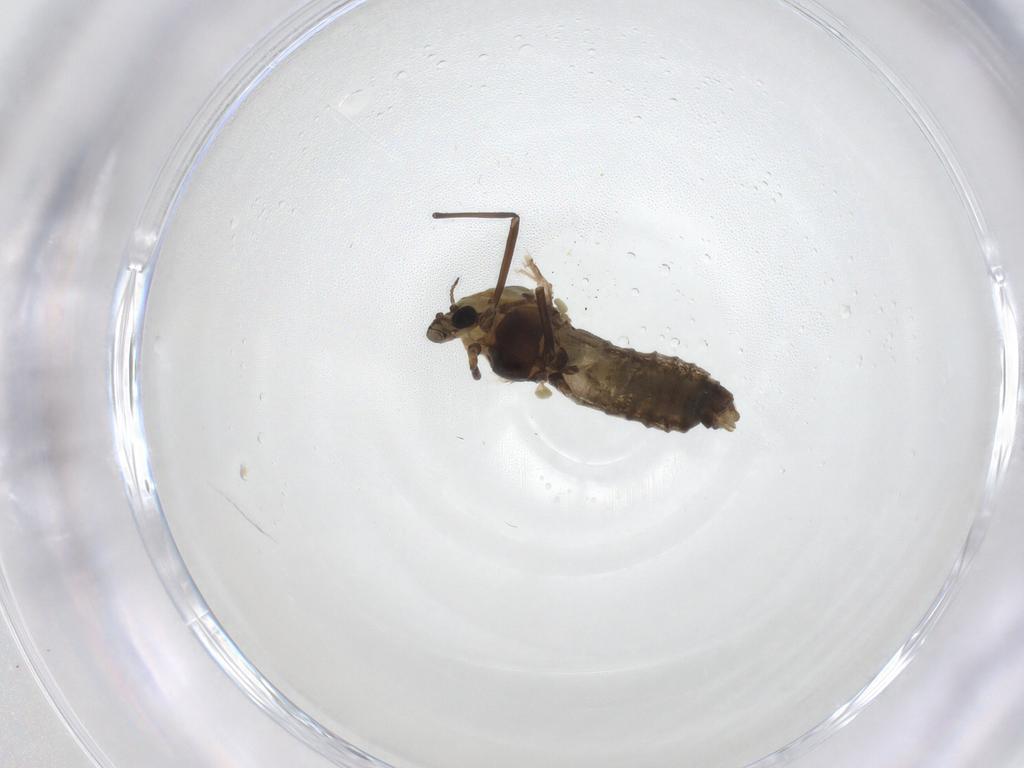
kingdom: Animalia
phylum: Arthropoda
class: Insecta
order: Diptera
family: Muscidae
